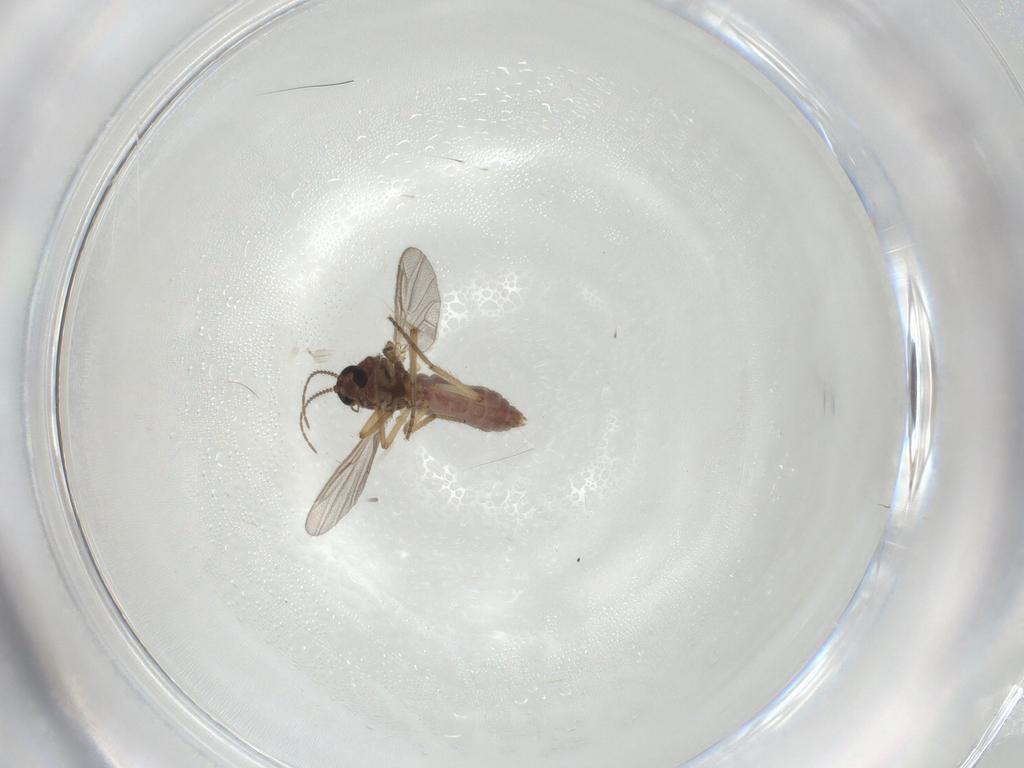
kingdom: Animalia
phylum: Arthropoda
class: Insecta
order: Diptera
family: Ceratopogonidae
